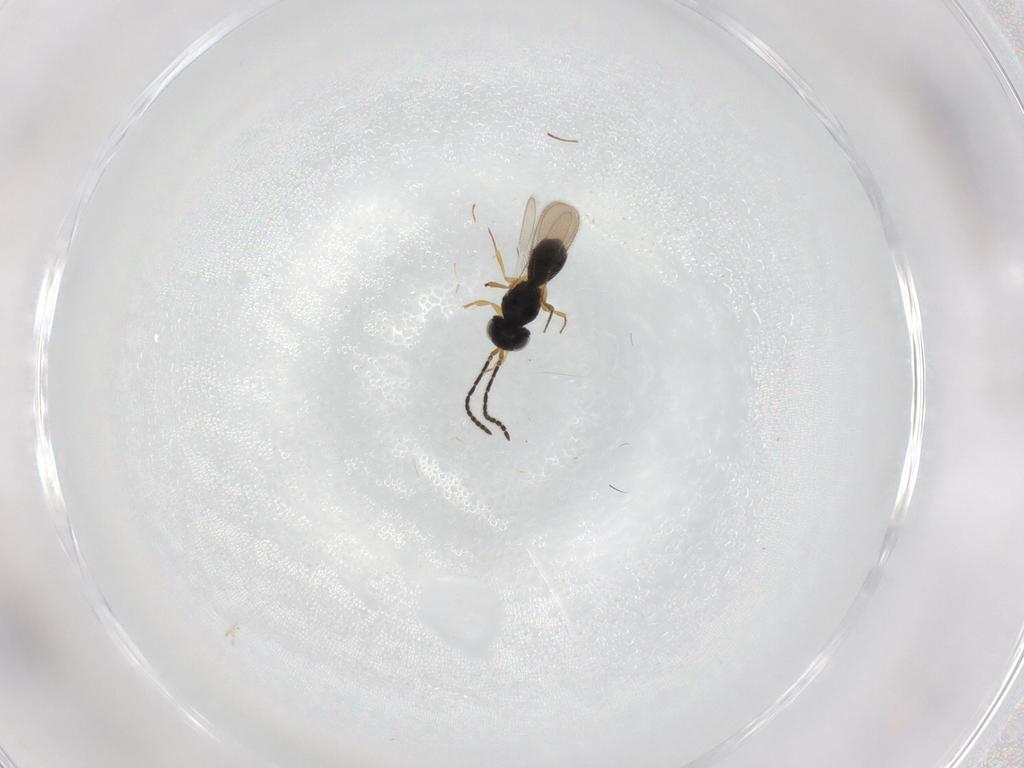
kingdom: Animalia
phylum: Arthropoda
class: Insecta
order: Hymenoptera
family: Scelionidae
